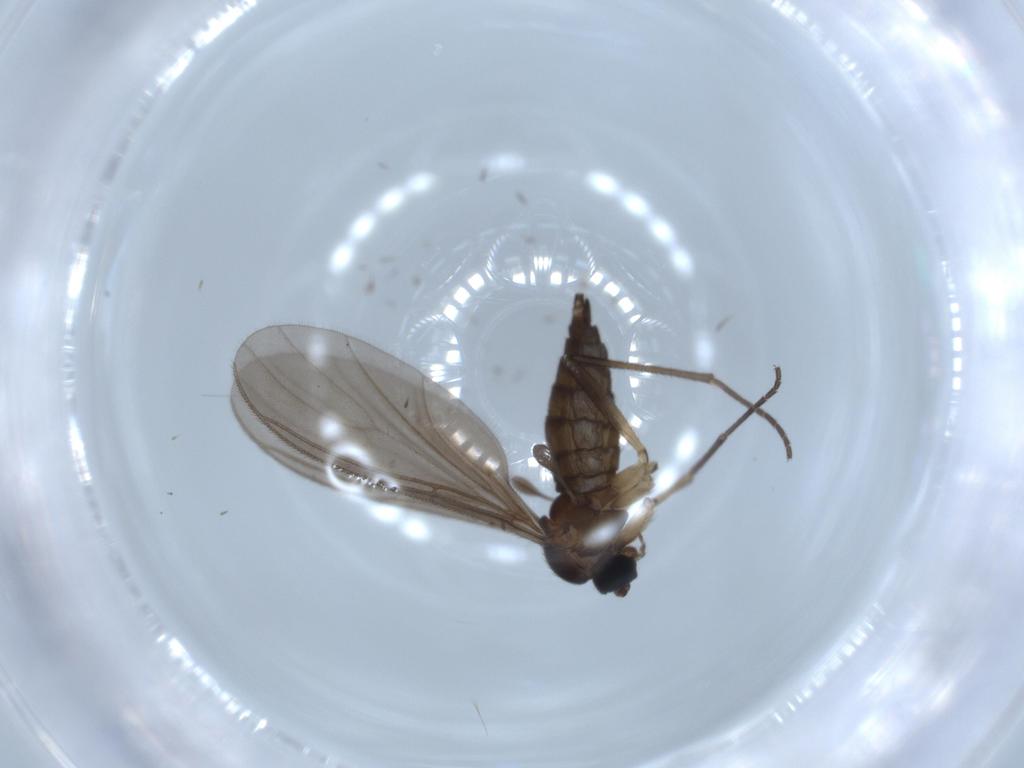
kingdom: Animalia
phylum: Arthropoda
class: Insecta
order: Diptera
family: Sciaridae
